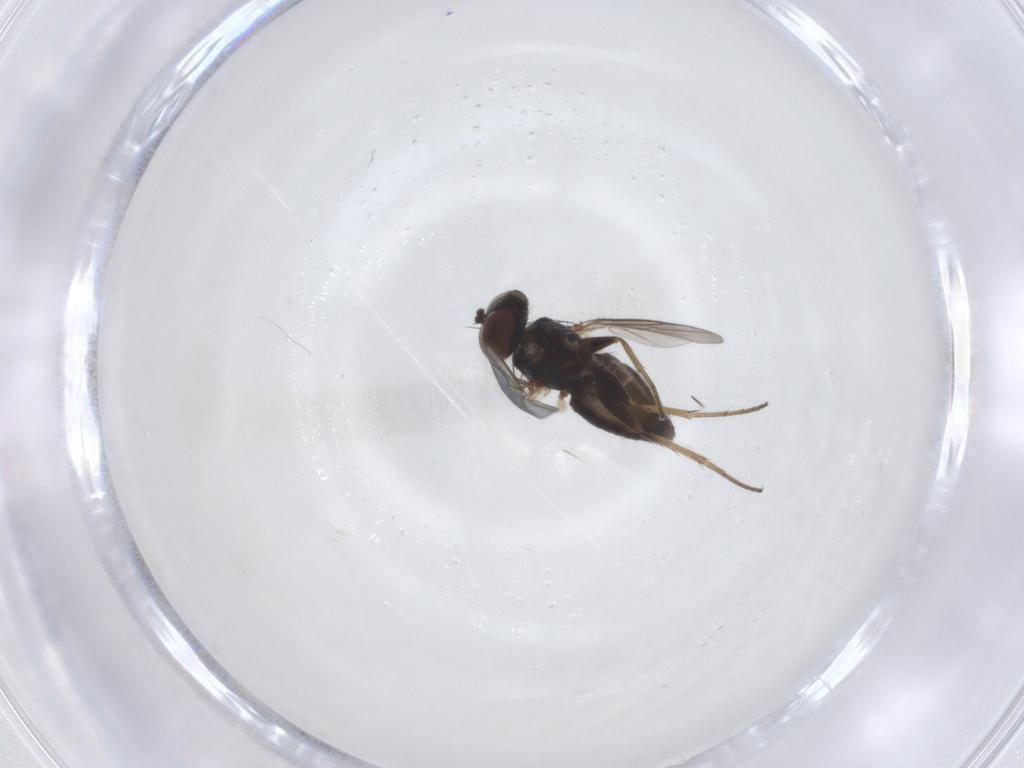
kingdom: Animalia
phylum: Arthropoda
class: Insecta
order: Diptera
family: Dolichopodidae
